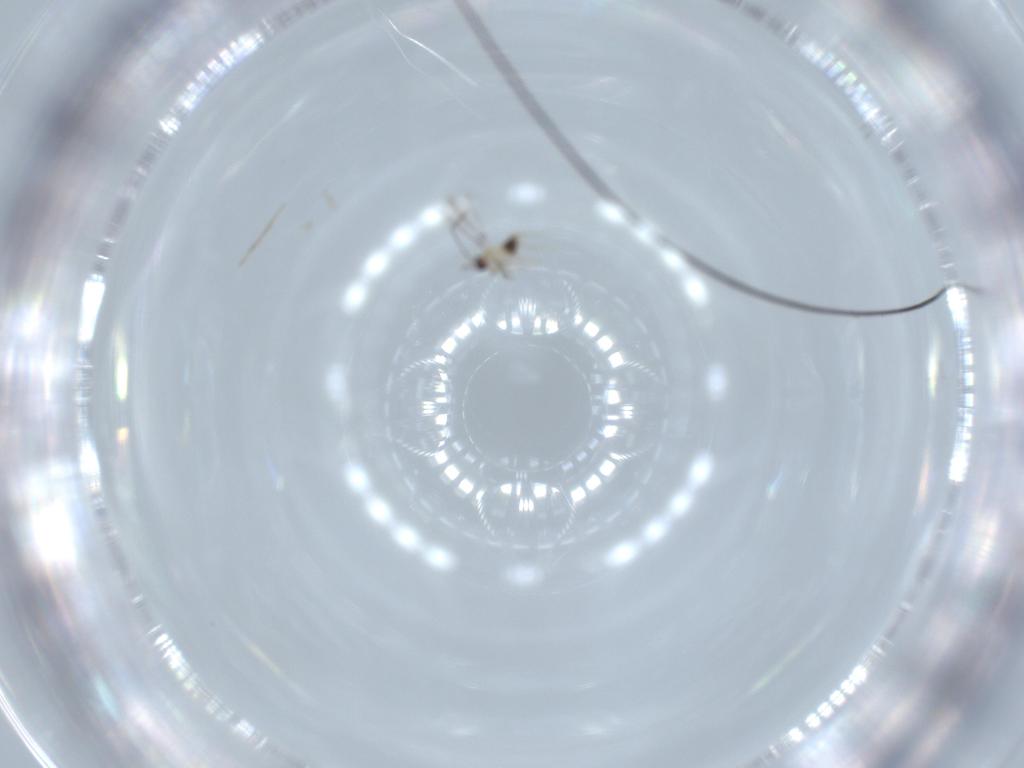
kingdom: Animalia
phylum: Arthropoda
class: Insecta
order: Hymenoptera
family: Mymaridae
